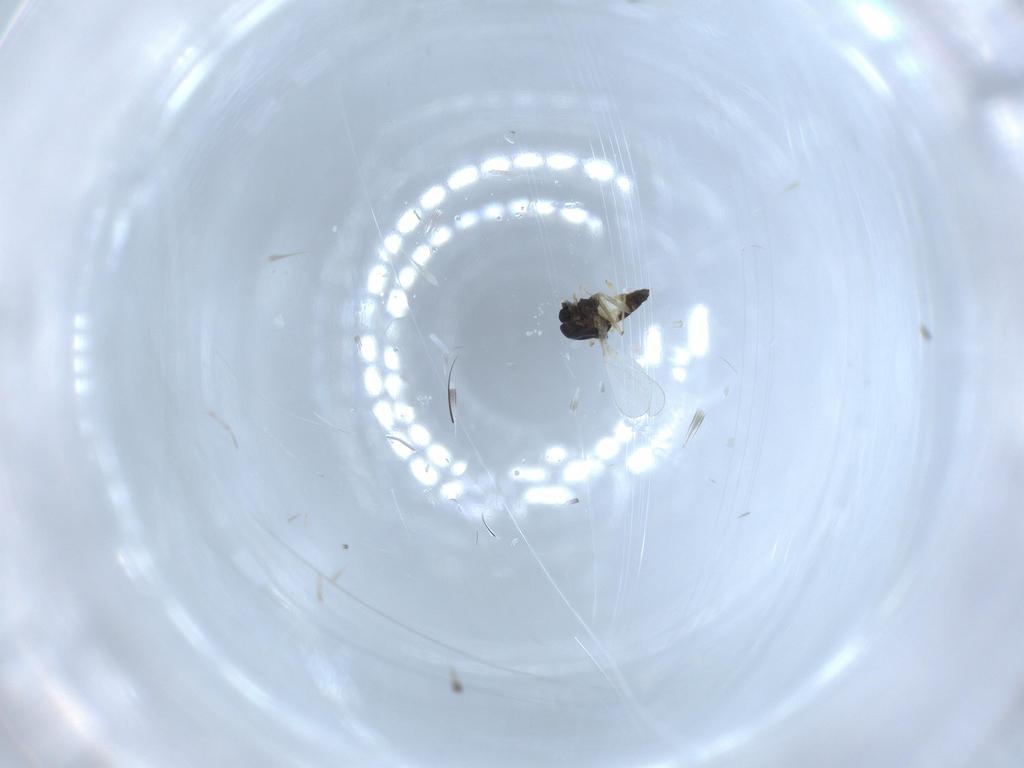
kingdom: Animalia
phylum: Arthropoda
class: Insecta
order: Diptera
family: Chironomidae
